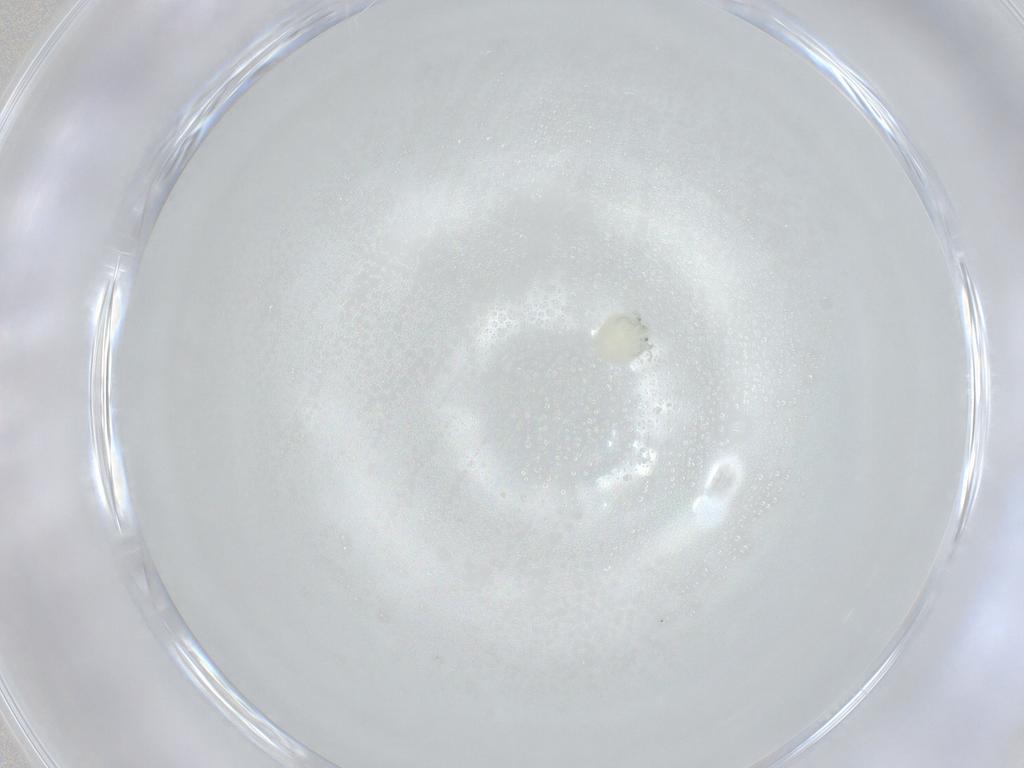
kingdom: Animalia
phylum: Arthropoda
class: Arachnida
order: Trombidiformes
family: Arrenuridae
